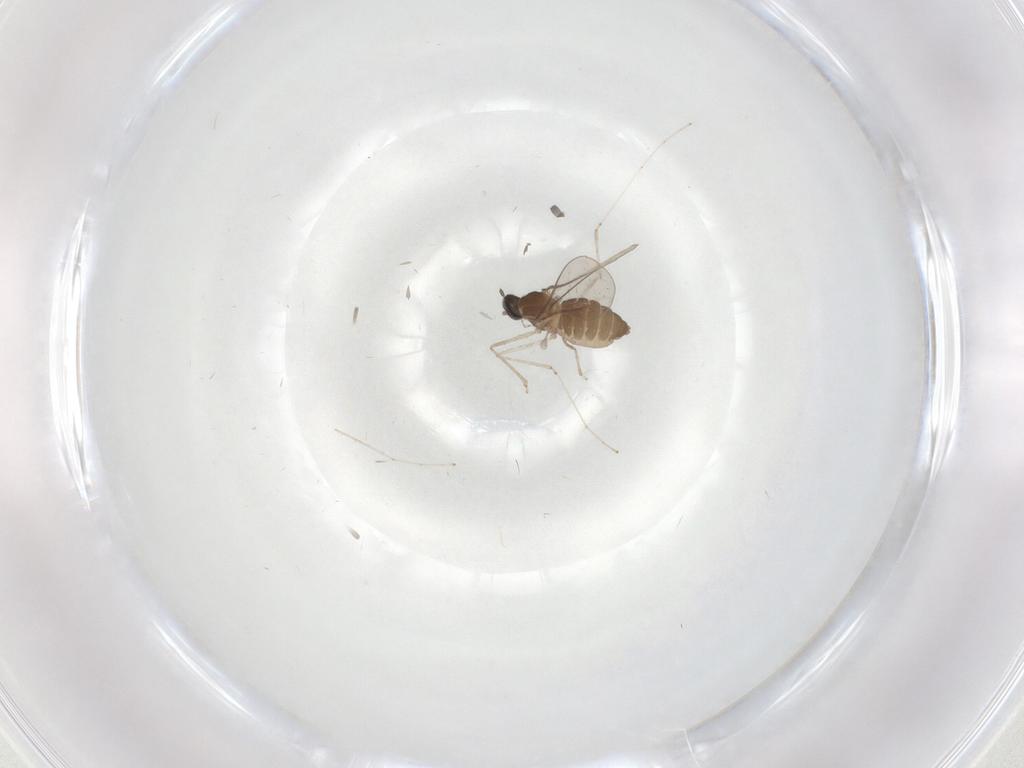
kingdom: Animalia
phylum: Arthropoda
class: Insecta
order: Diptera
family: Cecidomyiidae
